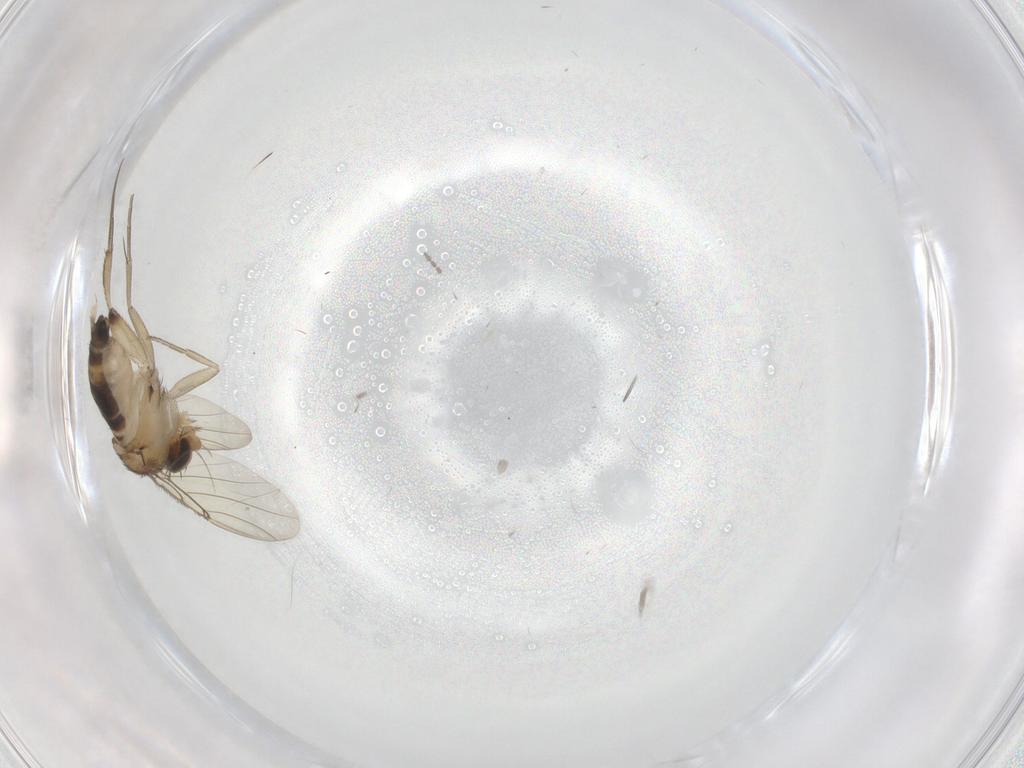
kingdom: Animalia
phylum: Arthropoda
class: Insecta
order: Diptera
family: Phoridae
